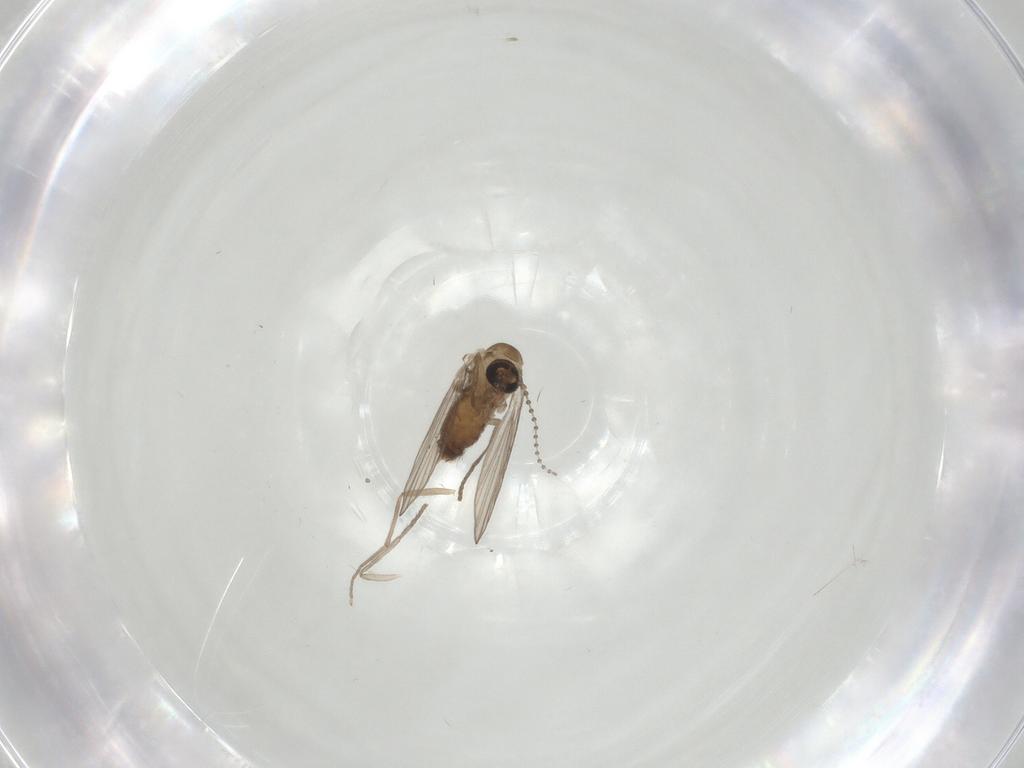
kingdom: Animalia
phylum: Arthropoda
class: Insecta
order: Diptera
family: Psychodidae
